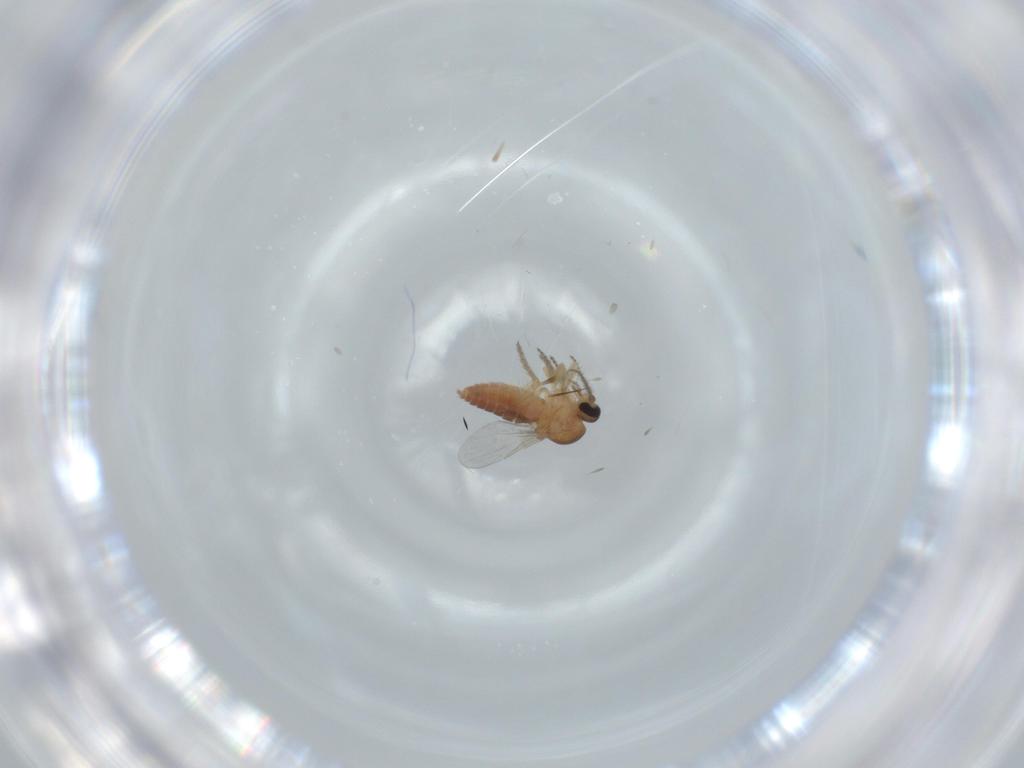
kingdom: Animalia
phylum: Arthropoda
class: Insecta
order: Diptera
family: Ceratopogonidae
